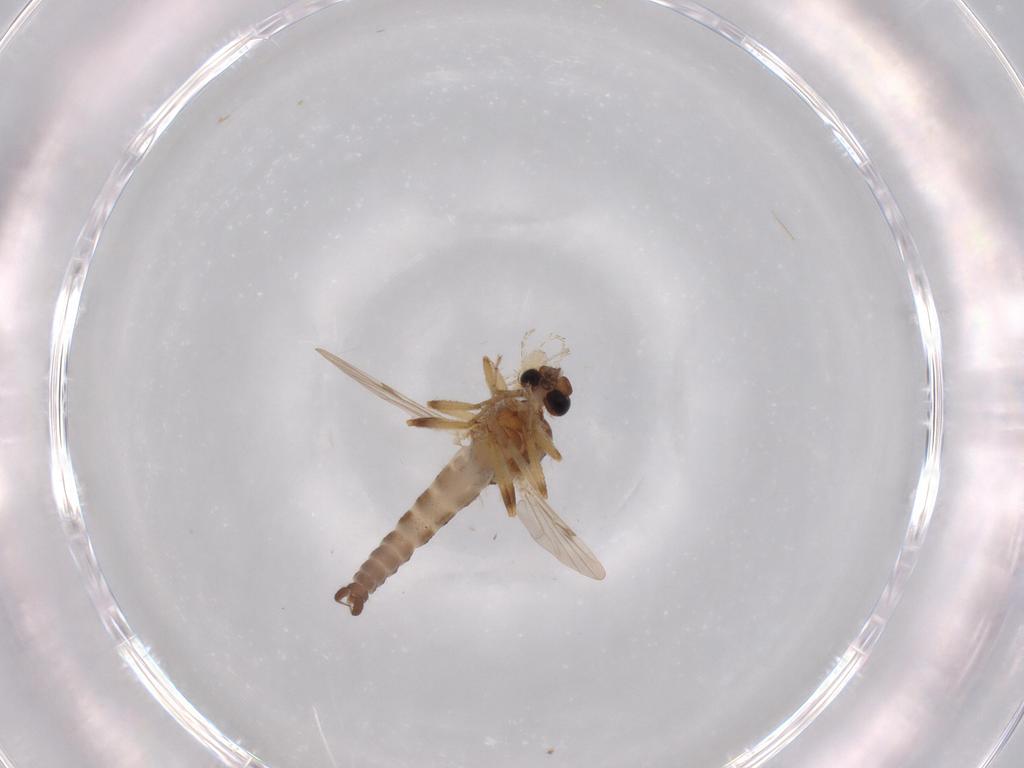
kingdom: Animalia
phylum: Arthropoda
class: Insecta
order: Diptera
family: Ceratopogonidae
